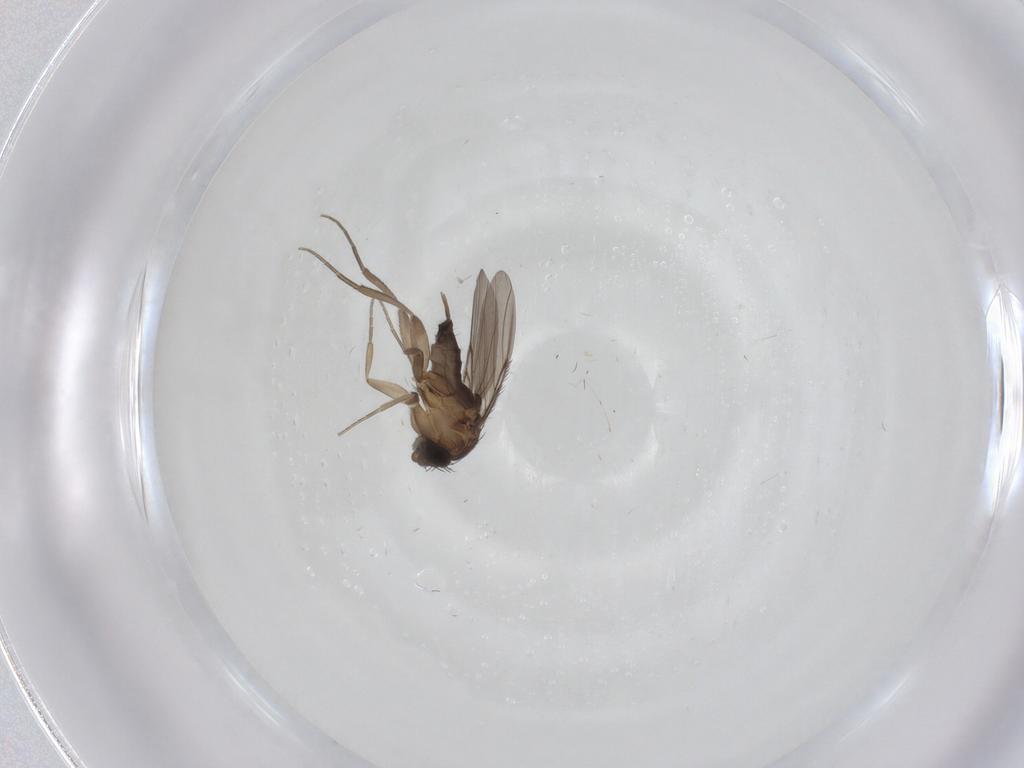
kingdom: Animalia
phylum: Arthropoda
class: Insecta
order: Diptera
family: Phoridae
